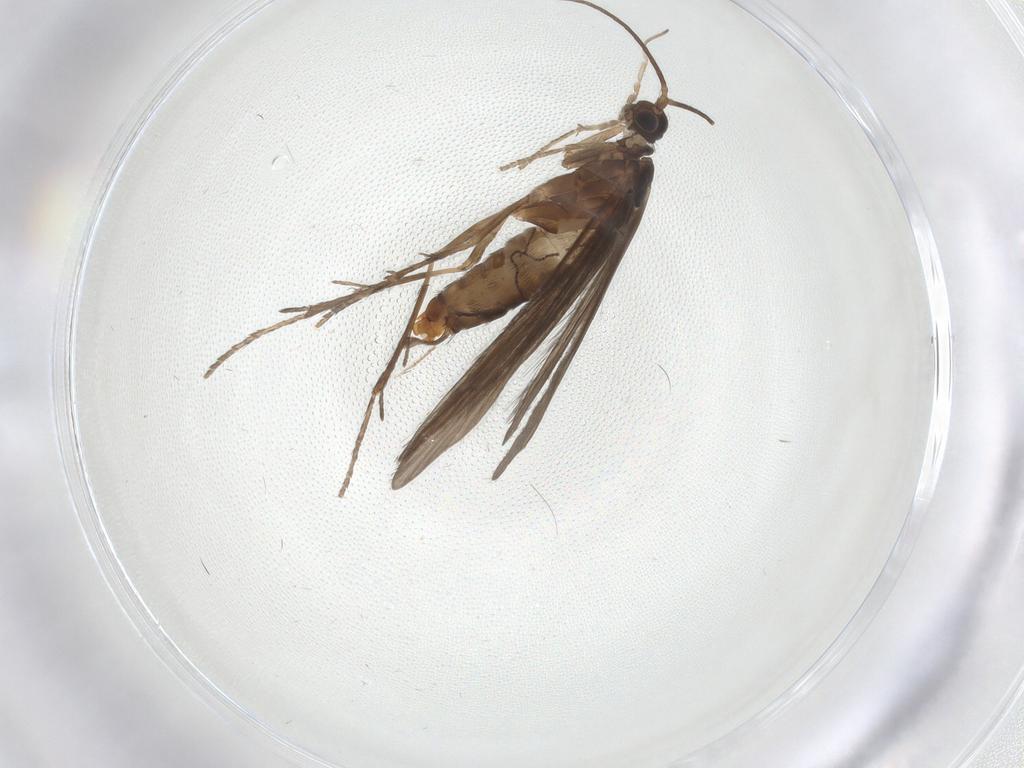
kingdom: Animalia
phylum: Arthropoda
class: Insecta
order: Trichoptera
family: Xiphocentronidae
